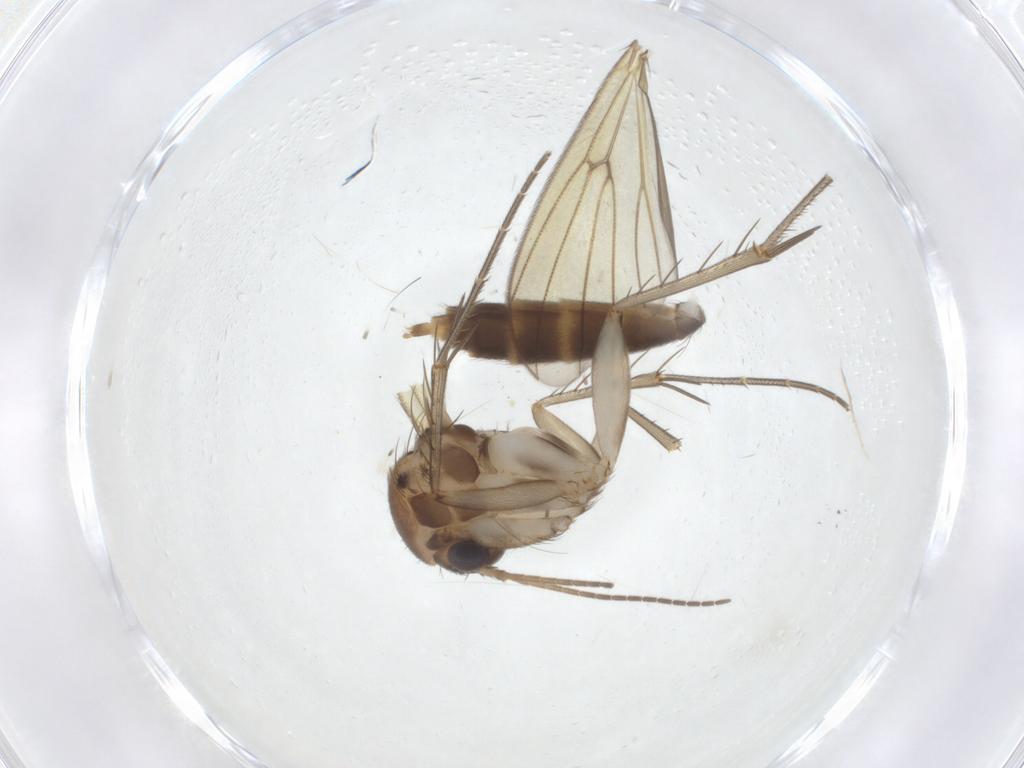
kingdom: Animalia
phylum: Arthropoda
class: Insecta
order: Diptera
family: Mycetophilidae
